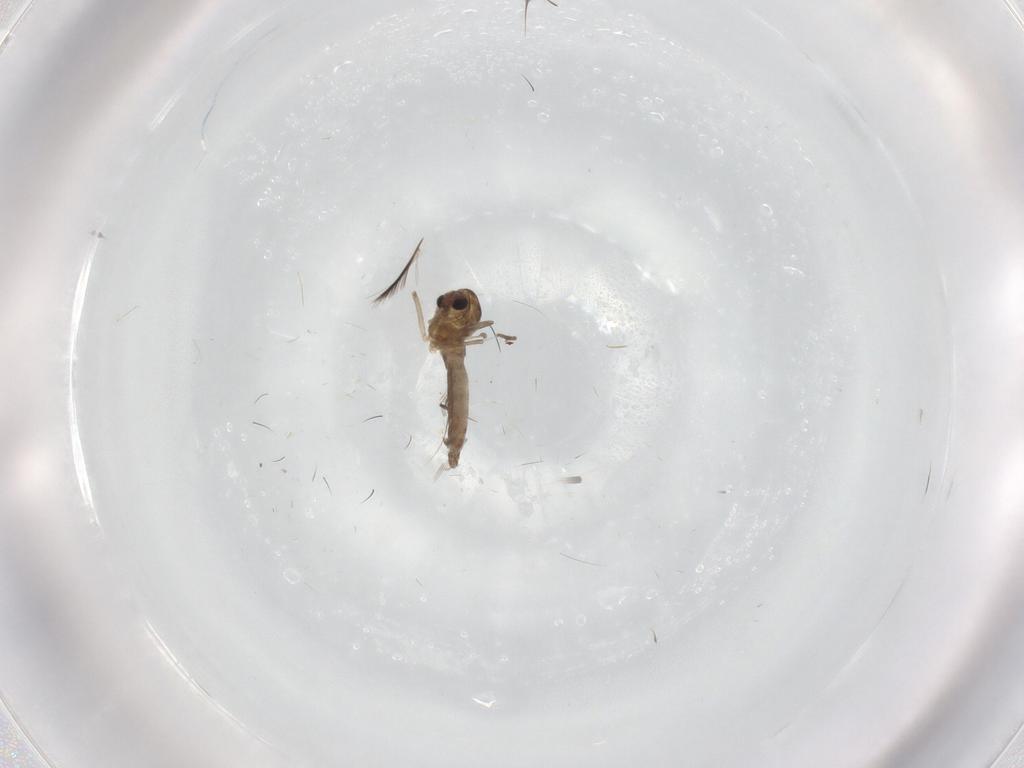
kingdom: Animalia
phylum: Arthropoda
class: Insecta
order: Diptera
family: Chironomidae
